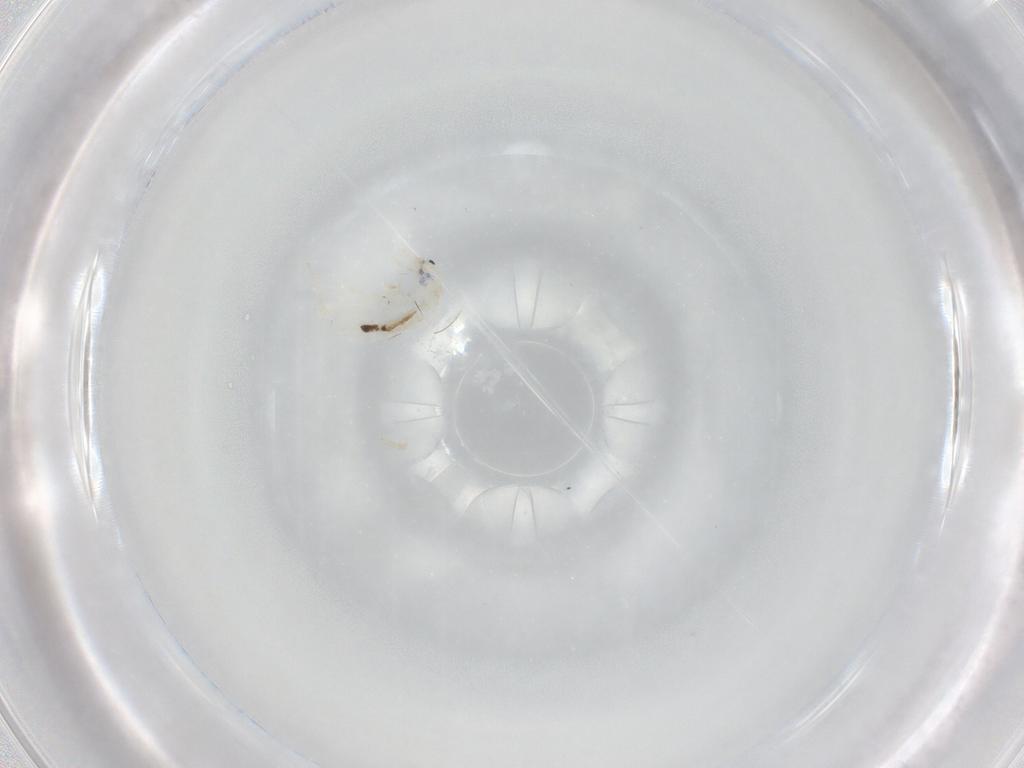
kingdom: Animalia
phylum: Arthropoda
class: Collembola
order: Entomobryomorpha
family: Entomobryidae
